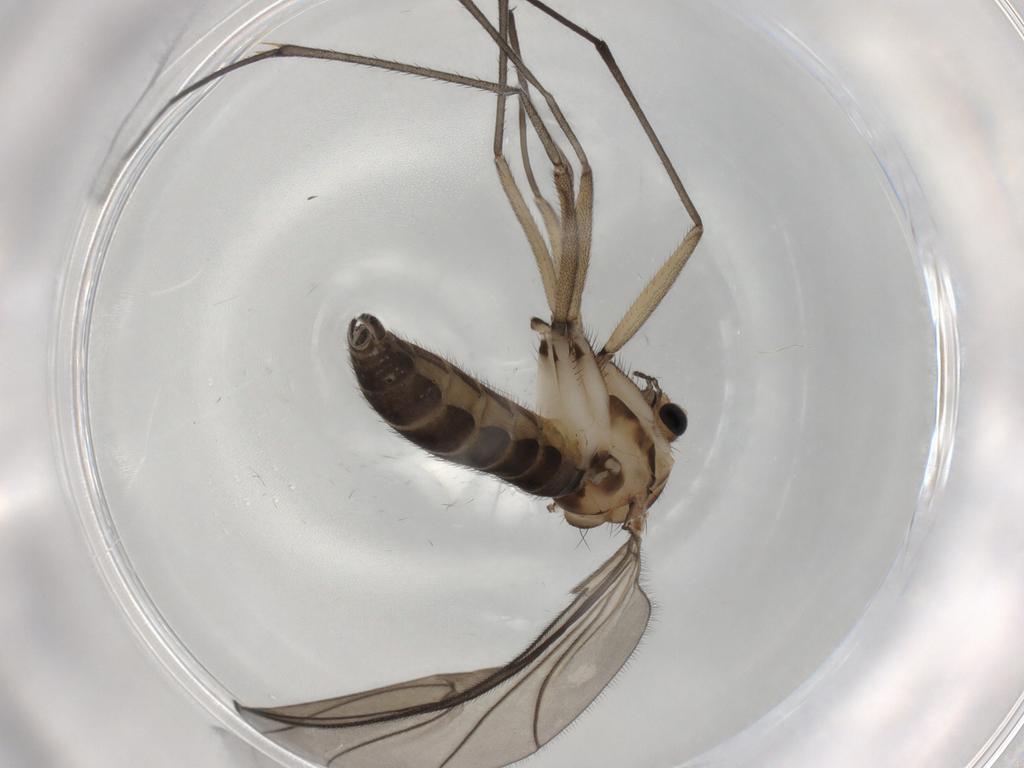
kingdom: Animalia
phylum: Arthropoda
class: Insecta
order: Diptera
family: Sciaridae
